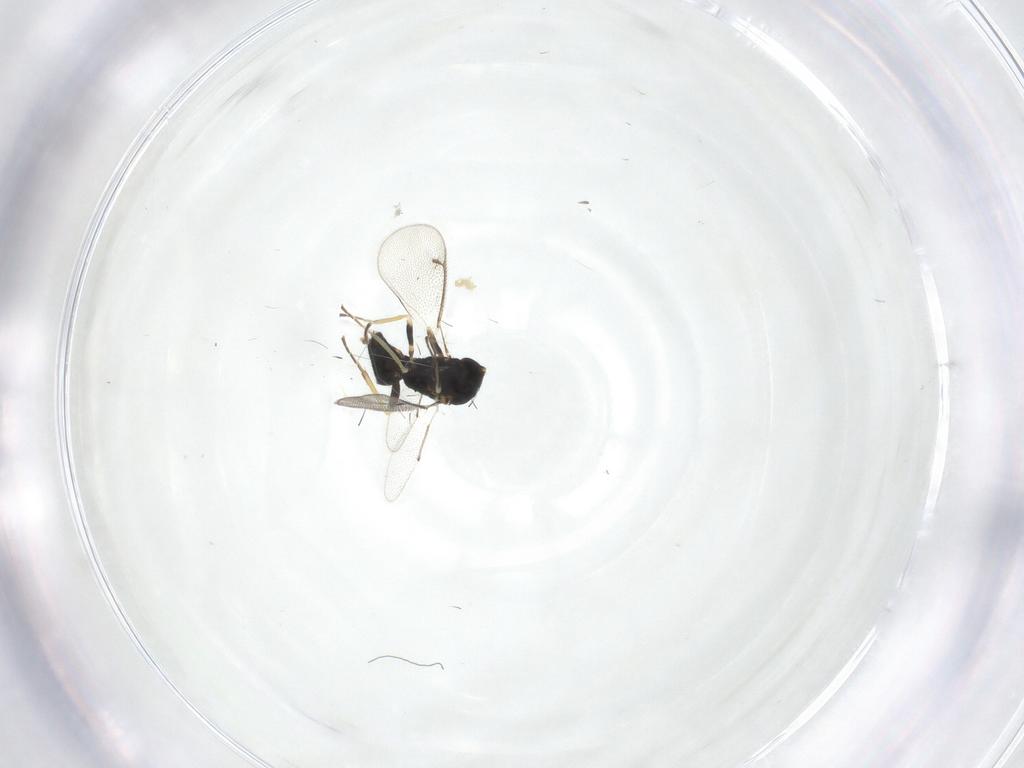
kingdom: Animalia
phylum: Arthropoda
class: Insecta
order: Hymenoptera
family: Eulophidae
